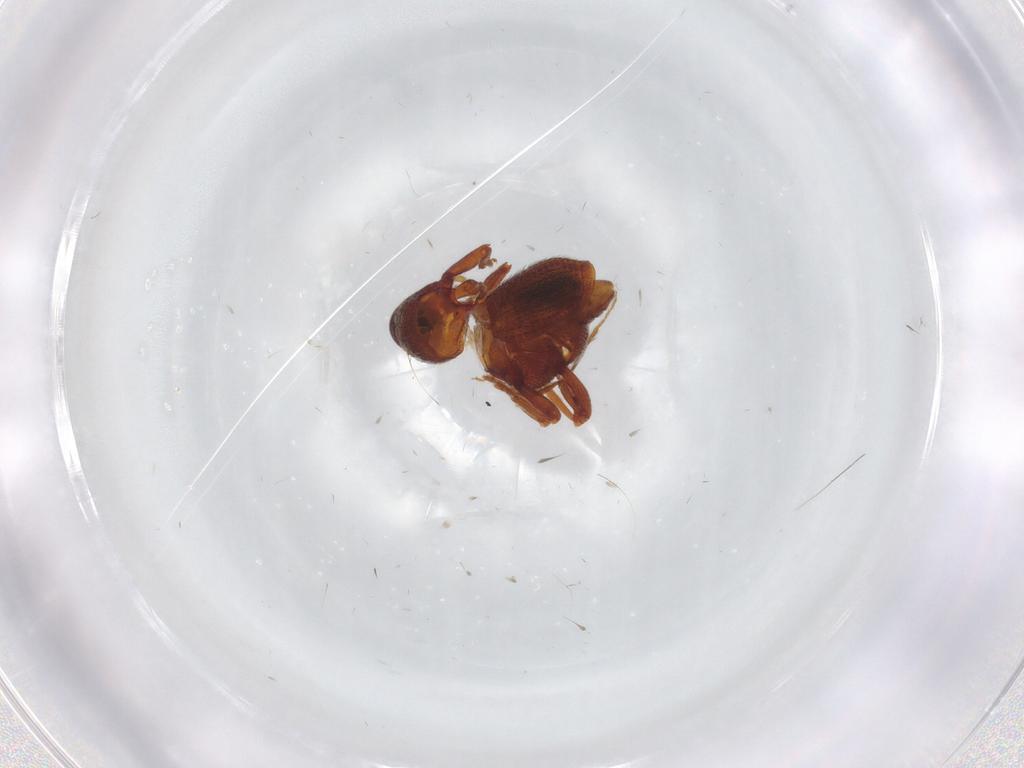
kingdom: Animalia
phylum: Arthropoda
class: Insecta
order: Coleoptera
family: Curculionidae
